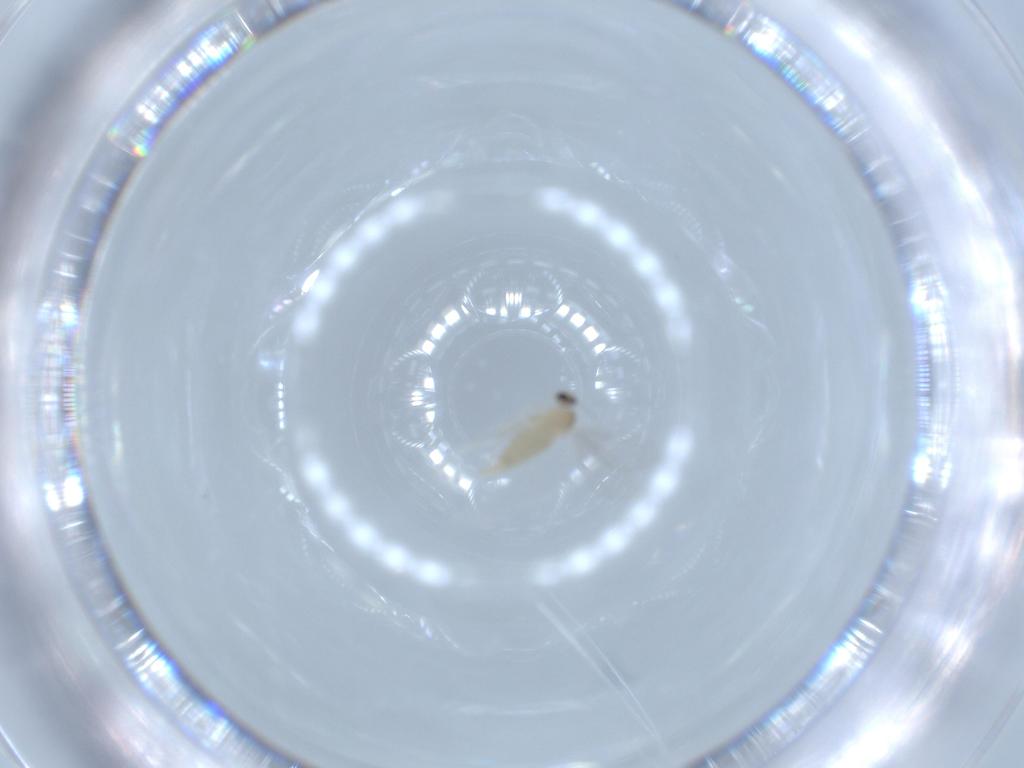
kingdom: Animalia
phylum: Arthropoda
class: Insecta
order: Diptera
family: Cecidomyiidae
